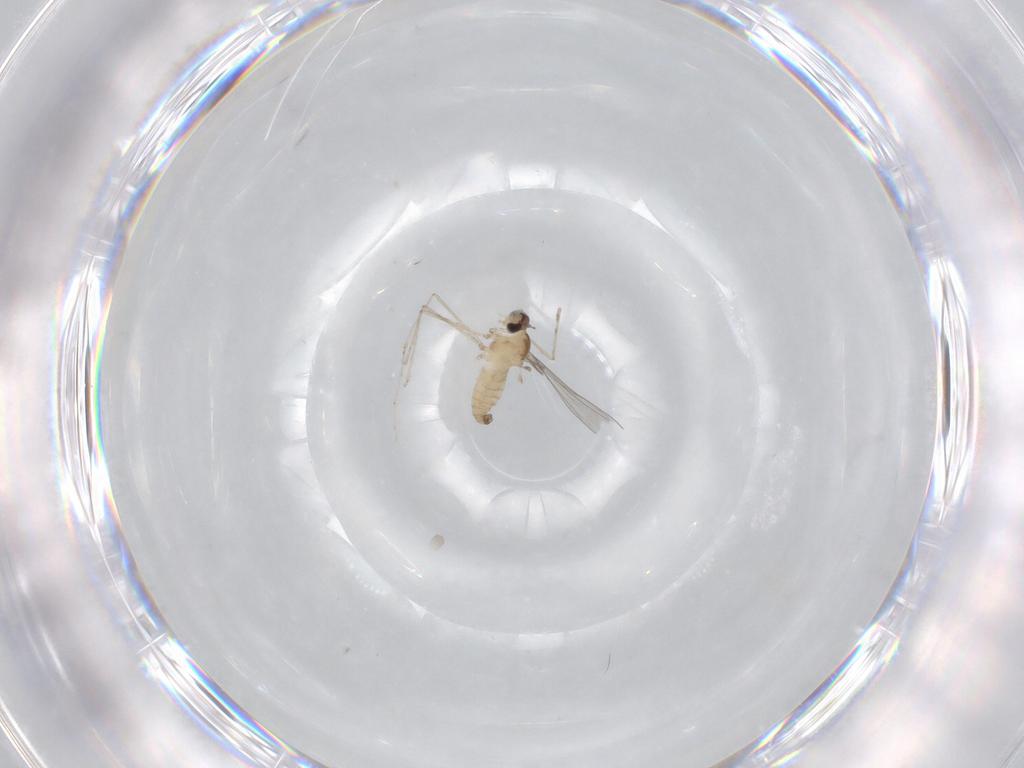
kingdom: Animalia
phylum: Arthropoda
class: Insecta
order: Diptera
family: Cecidomyiidae
